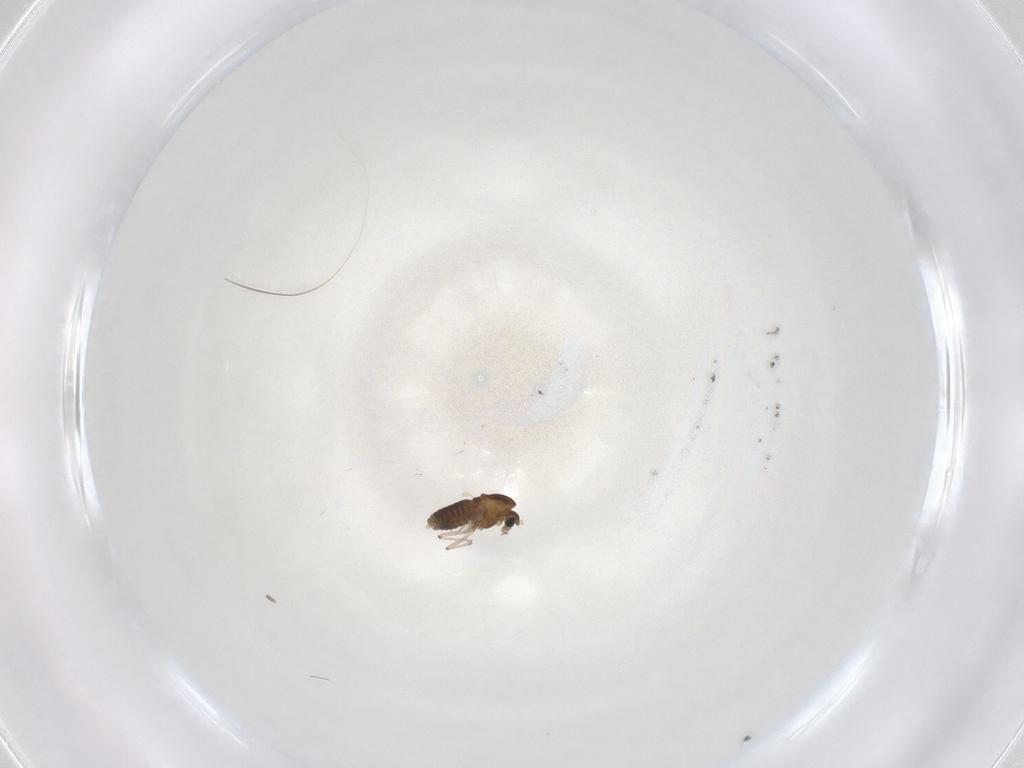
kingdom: Animalia
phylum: Arthropoda
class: Insecta
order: Diptera
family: Chironomidae
